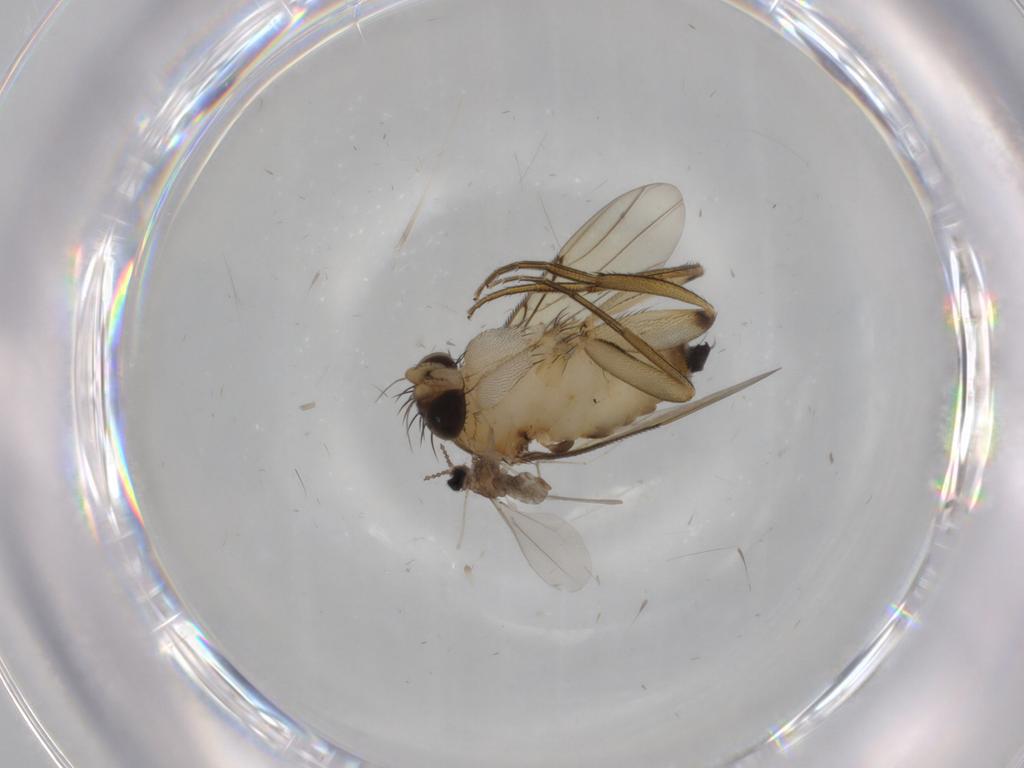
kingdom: Animalia
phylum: Arthropoda
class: Insecta
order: Diptera
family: Phoridae
